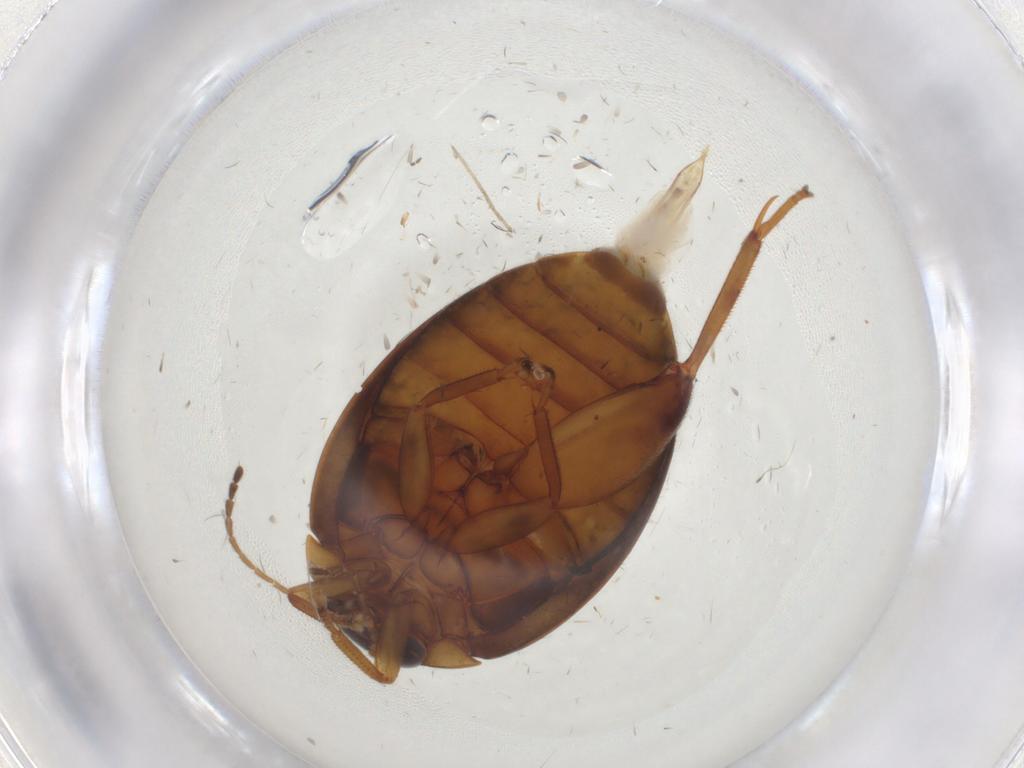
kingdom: Animalia
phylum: Arthropoda
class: Insecta
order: Coleoptera
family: Scirtidae
